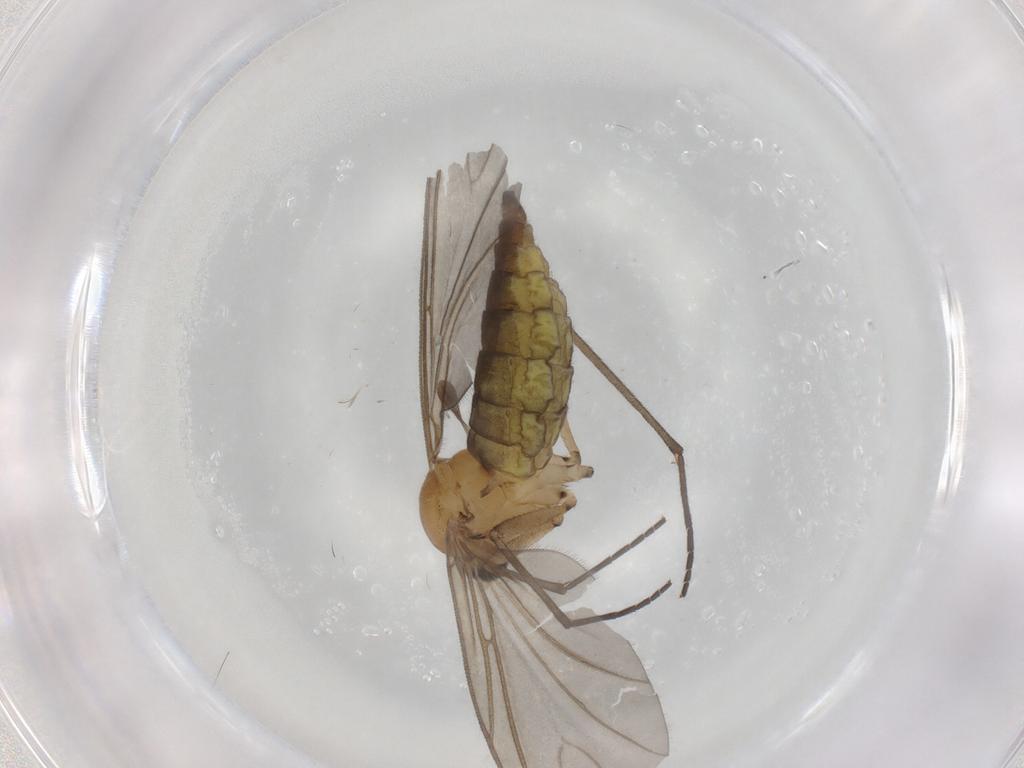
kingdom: Animalia
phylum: Arthropoda
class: Insecta
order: Diptera
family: Sciaridae
